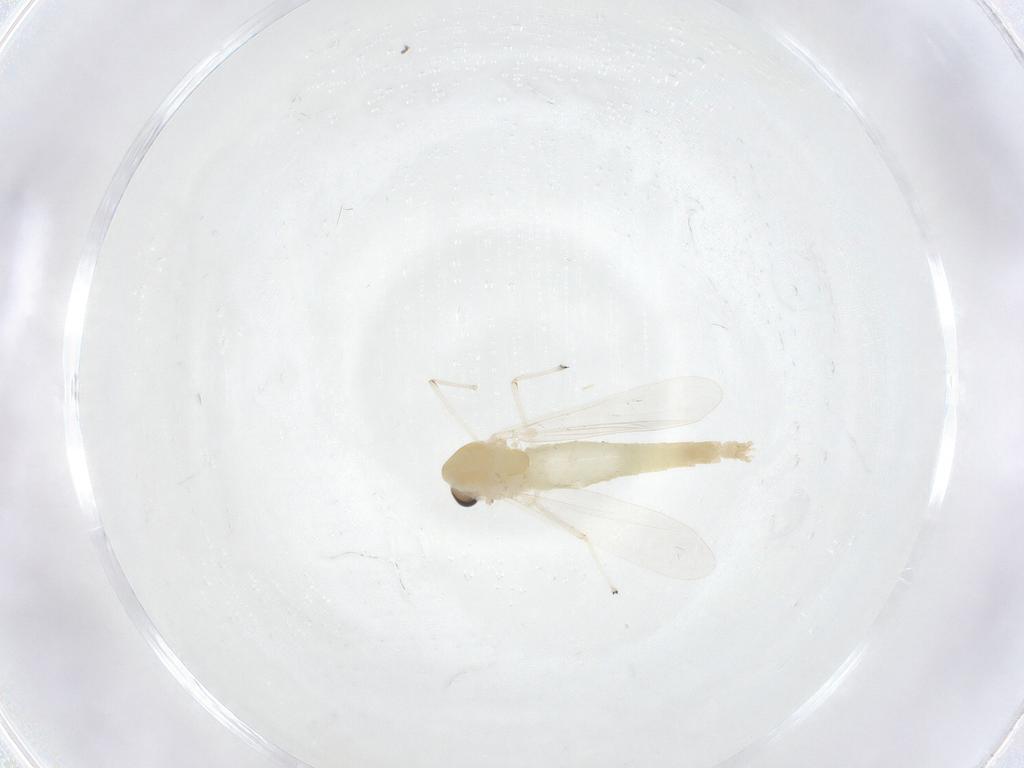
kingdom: Animalia
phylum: Arthropoda
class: Insecta
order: Diptera
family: Chironomidae
